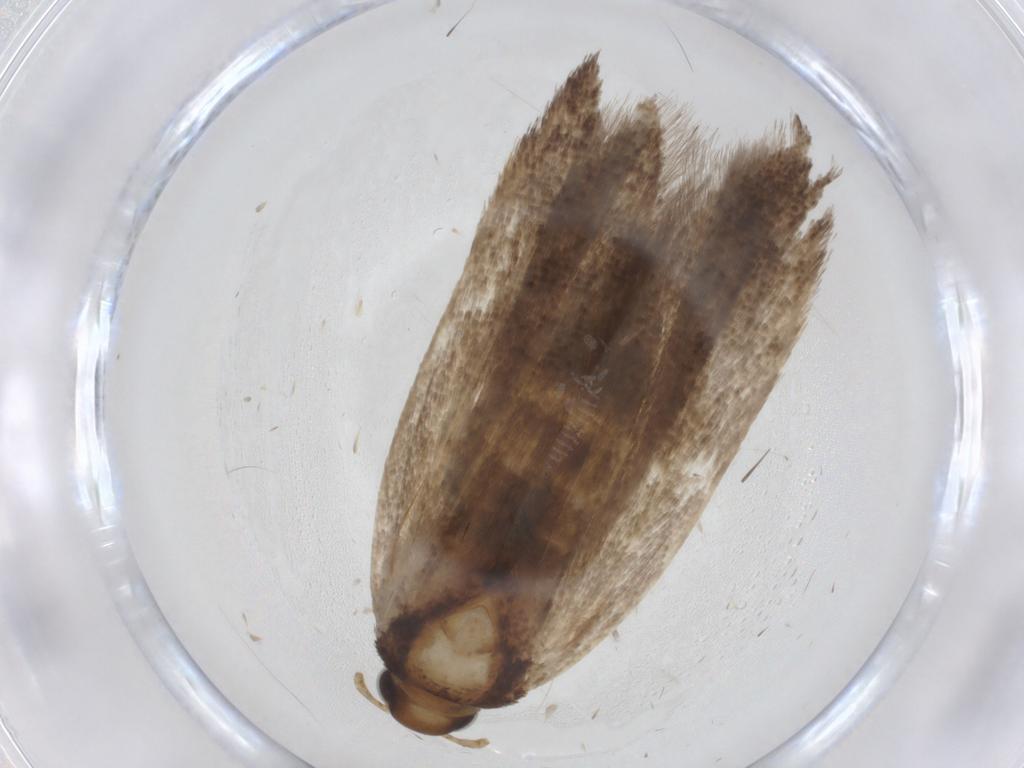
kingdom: Animalia
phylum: Arthropoda
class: Insecta
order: Lepidoptera
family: Gelechiidae
